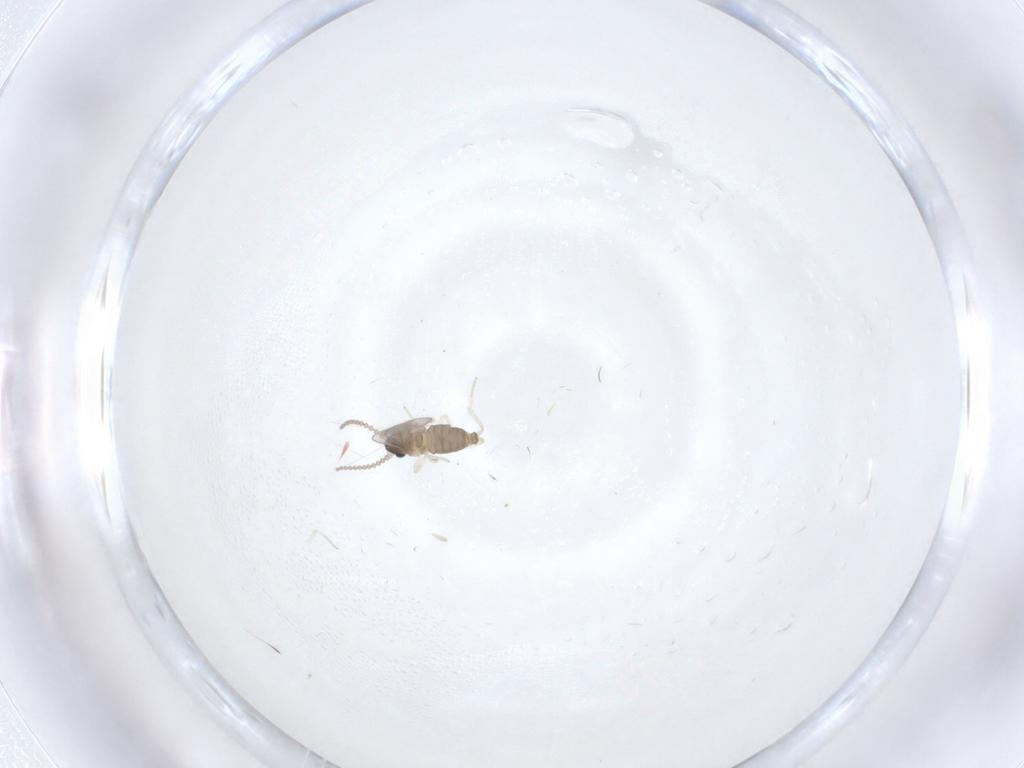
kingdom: Animalia
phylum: Arthropoda
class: Insecta
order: Diptera
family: Cecidomyiidae
